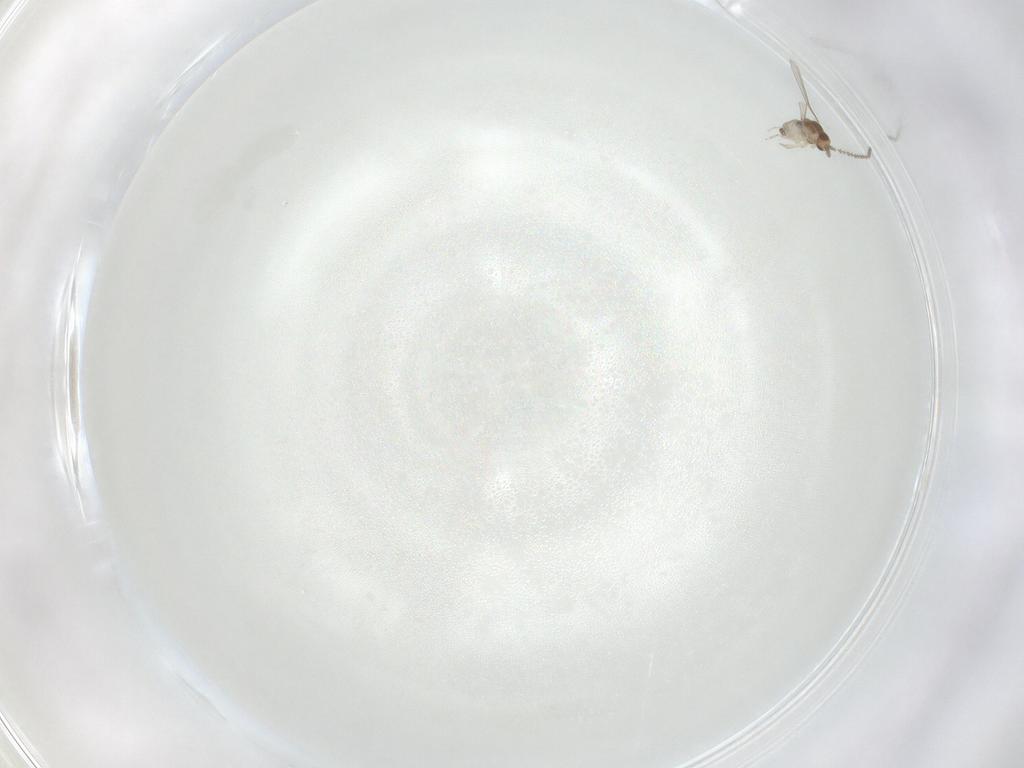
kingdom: Animalia
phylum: Arthropoda
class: Insecta
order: Diptera
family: Cecidomyiidae
